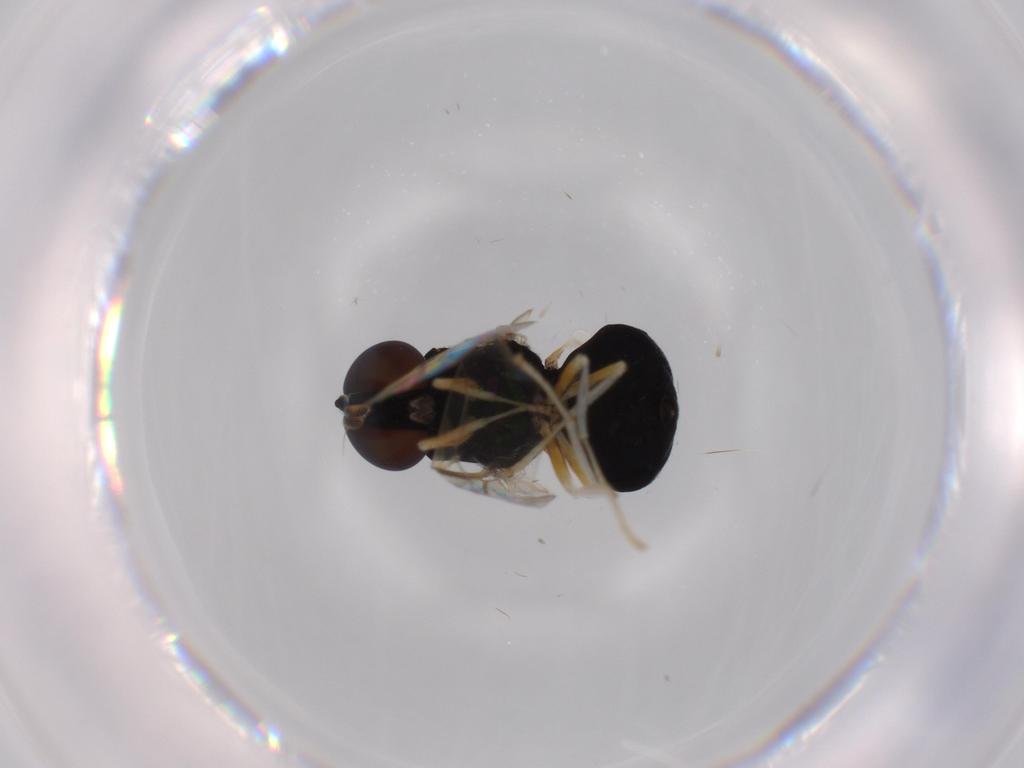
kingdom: Animalia
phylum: Arthropoda
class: Insecta
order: Diptera
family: Stratiomyidae
